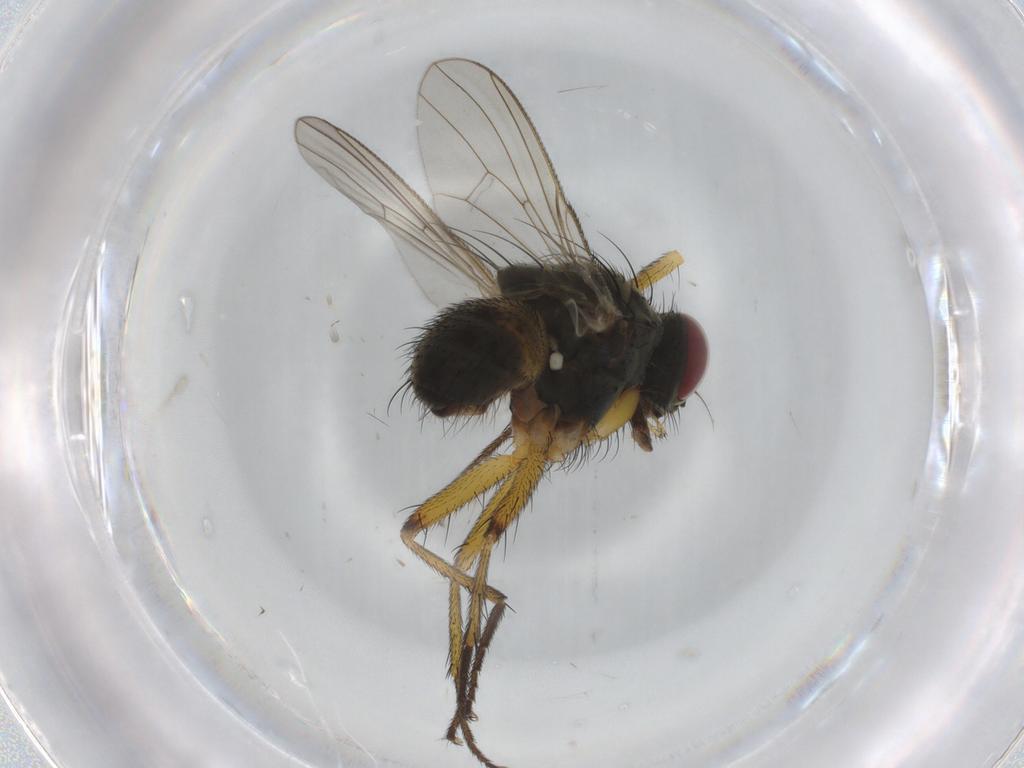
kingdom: Animalia
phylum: Arthropoda
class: Insecta
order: Diptera
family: Muscidae
